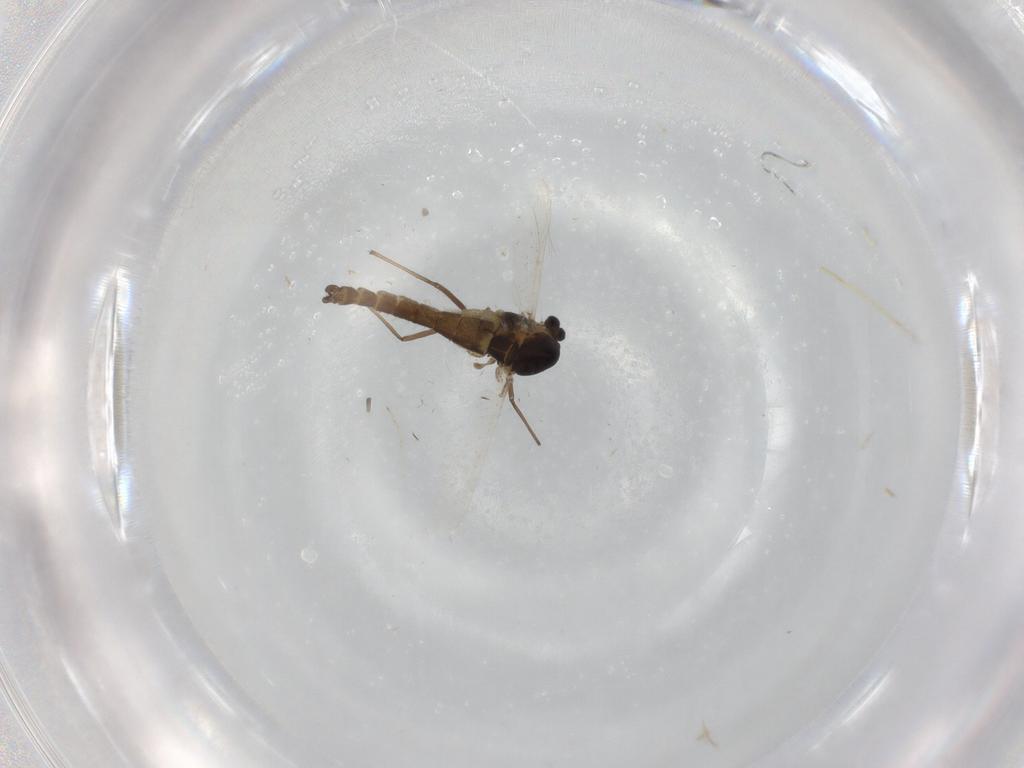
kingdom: Animalia
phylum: Arthropoda
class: Insecta
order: Diptera
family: Chironomidae
